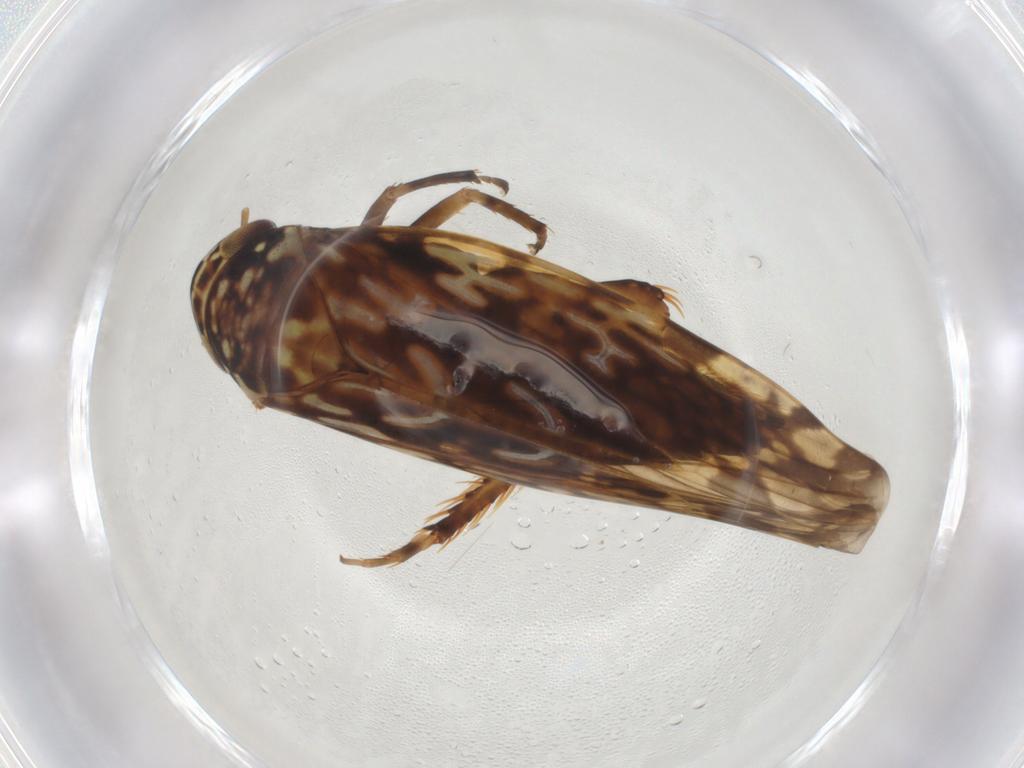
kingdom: Animalia
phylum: Arthropoda
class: Insecta
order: Hemiptera
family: Cicadellidae
